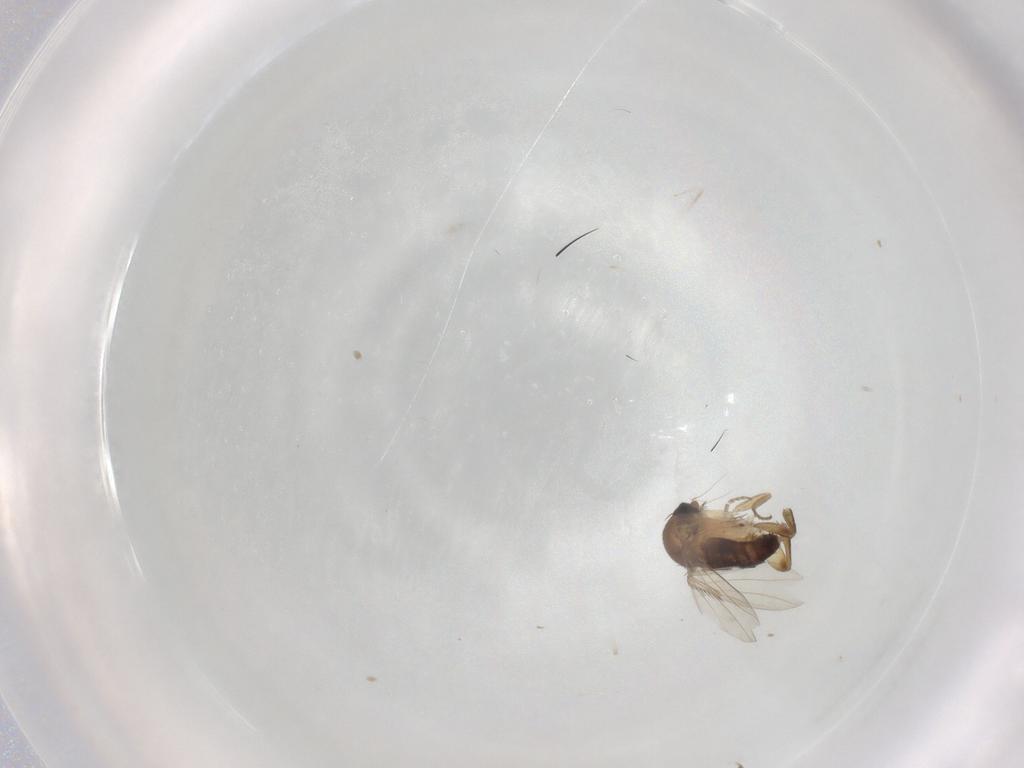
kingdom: Animalia
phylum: Arthropoda
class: Insecta
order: Diptera
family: Phoridae
